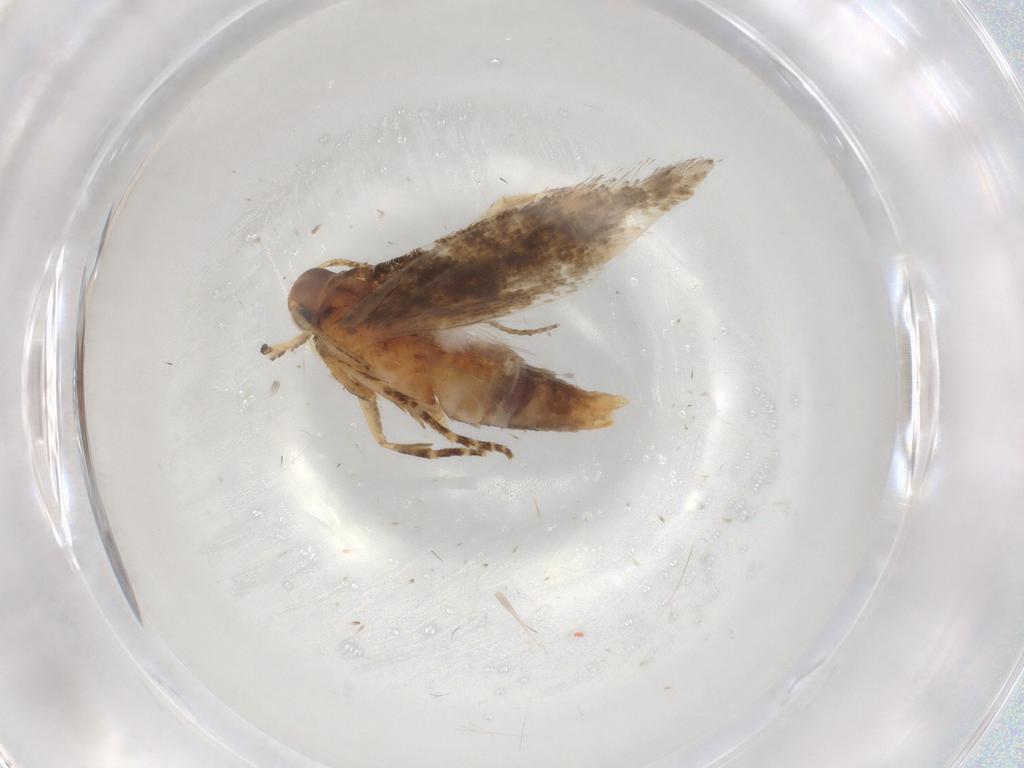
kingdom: Animalia
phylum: Arthropoda
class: Insecta
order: Lepidoptera
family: Gelechiidae
